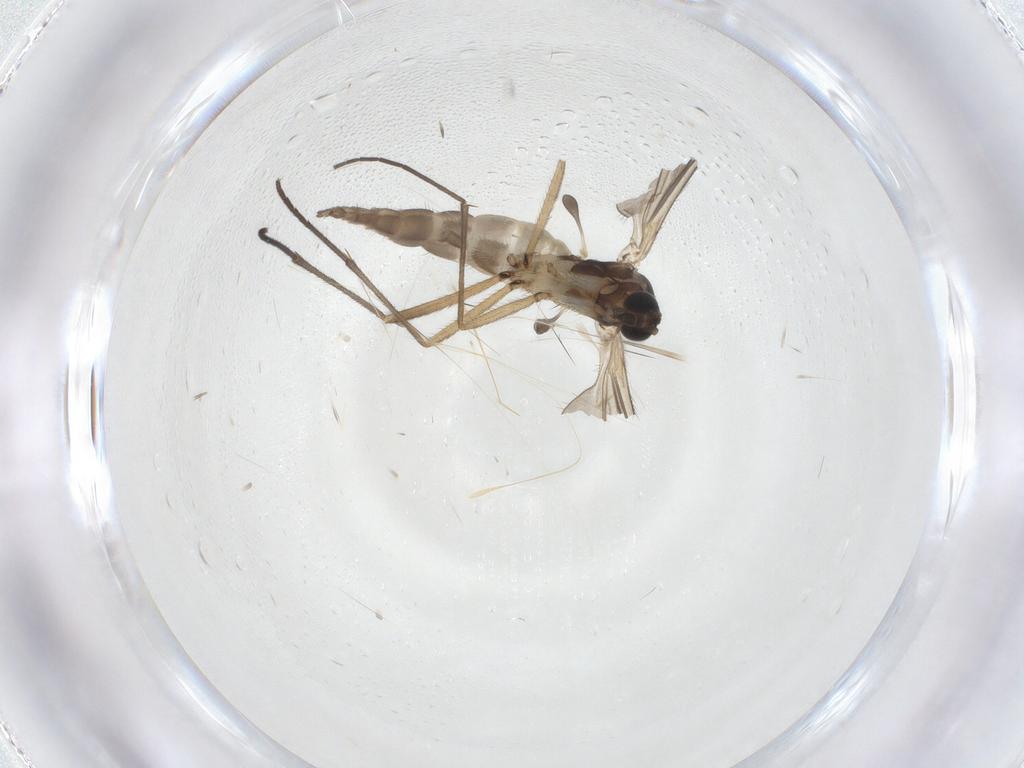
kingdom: Animalia
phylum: Arthropoda
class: Insecta
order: Diptera
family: Sciaridae
